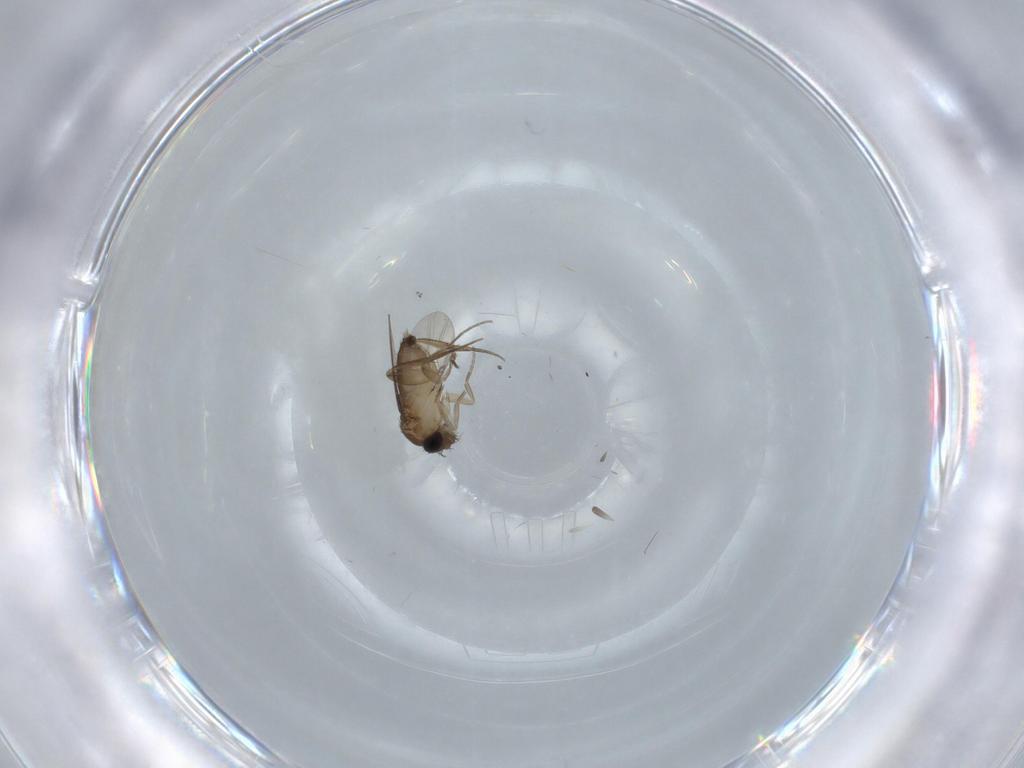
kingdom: Animalia
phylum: Arthropoda
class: Insecta
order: Diptera
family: Phoridae
